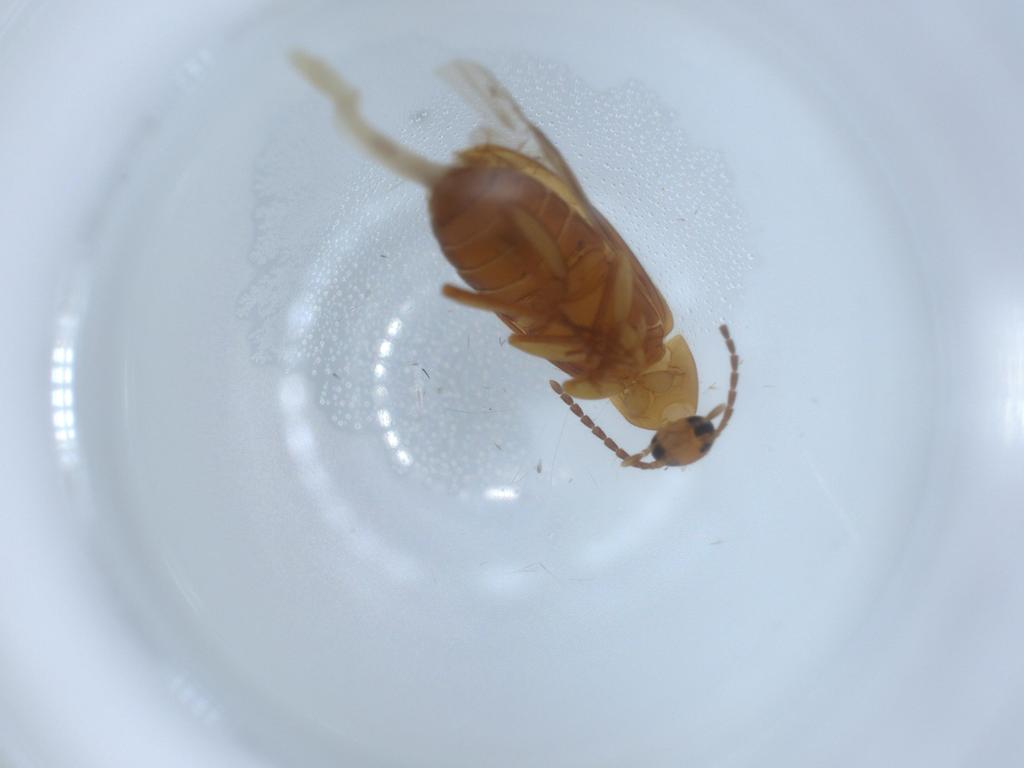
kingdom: Animalia
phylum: Arthropoda
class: Insecta
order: Coleoptera
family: Scraptiidae
